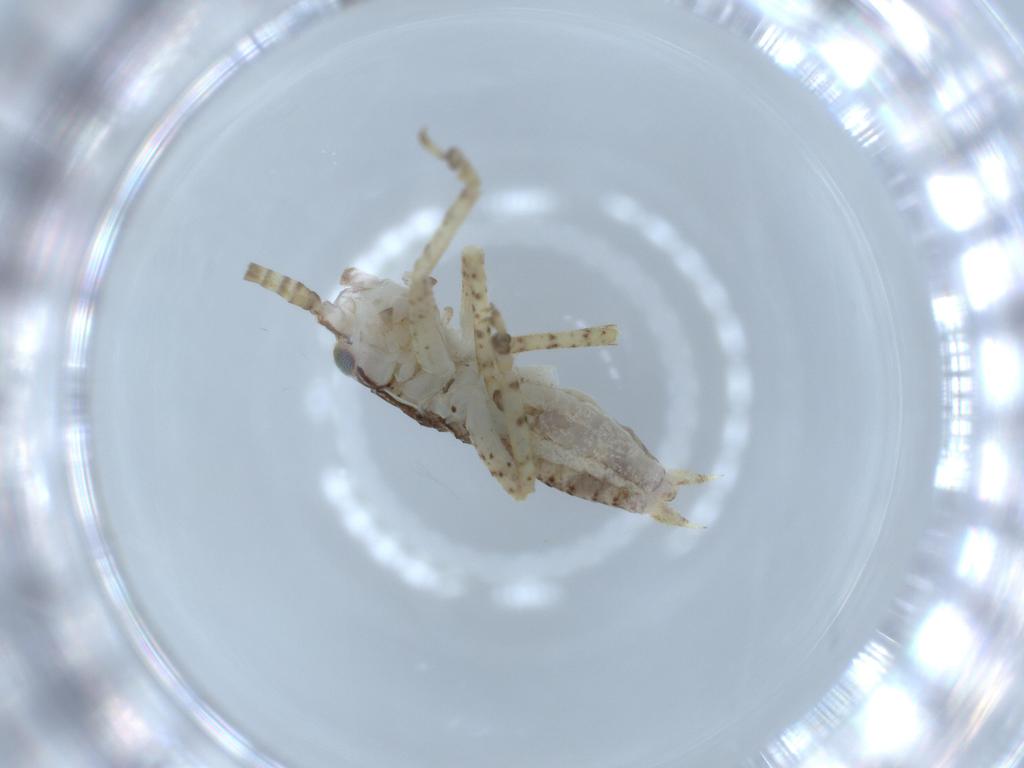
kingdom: Animalia
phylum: Arthropoda
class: Insecta
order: Orthoptera
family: Gryllidae
